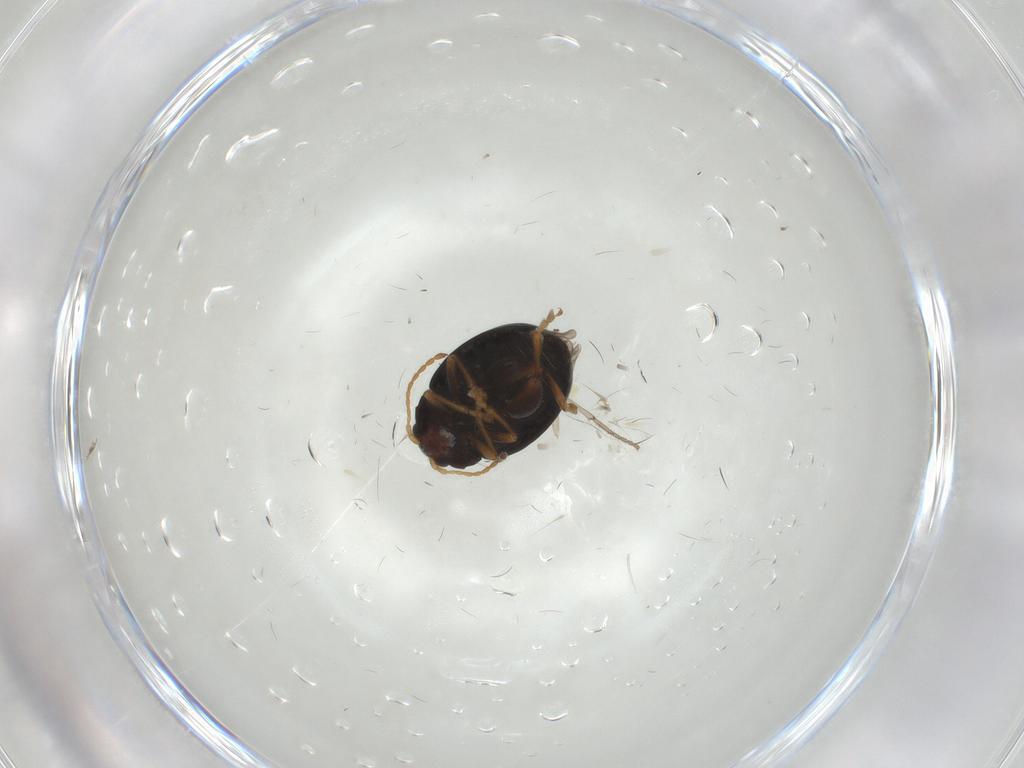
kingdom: Animalia
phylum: Arthropoda
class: Insecta
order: Coleoptera
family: Chrysomelidae
